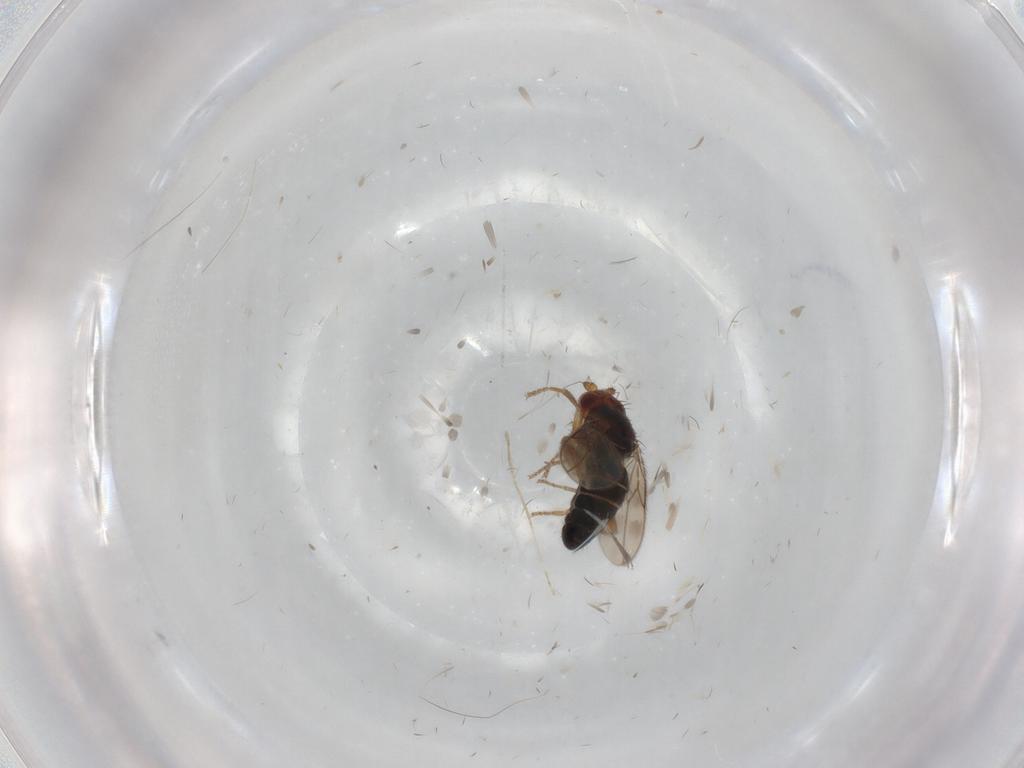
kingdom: Animalia
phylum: Arthropoda
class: Insecta
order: Diptera
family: Sphaeroceridae
